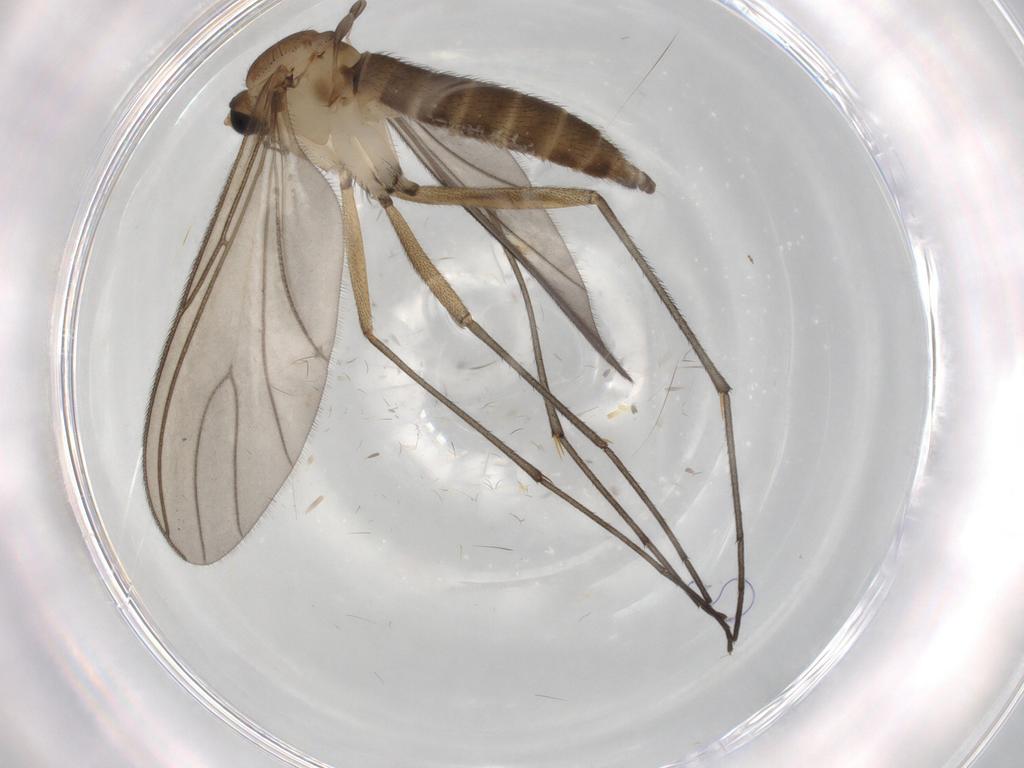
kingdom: Animalia
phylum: Arthropoda
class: Insecta
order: Diptera
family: Sciaridae
